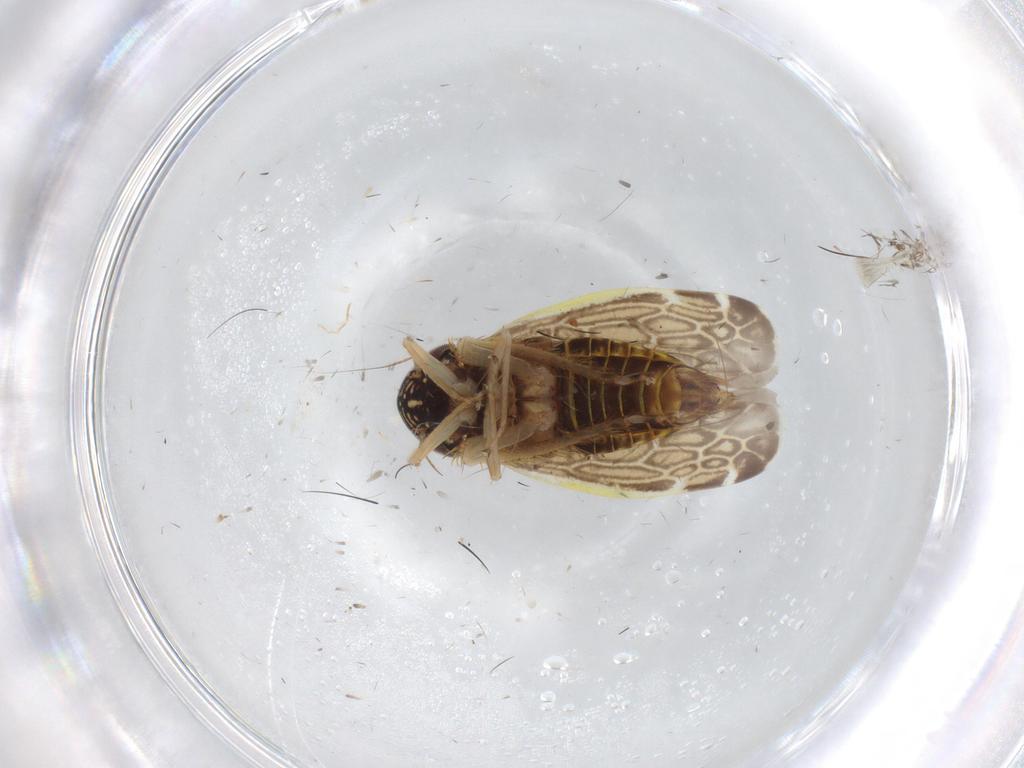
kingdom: Animalia
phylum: Arthropoda
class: Insecta
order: Hemiptera
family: Cicadellidae
